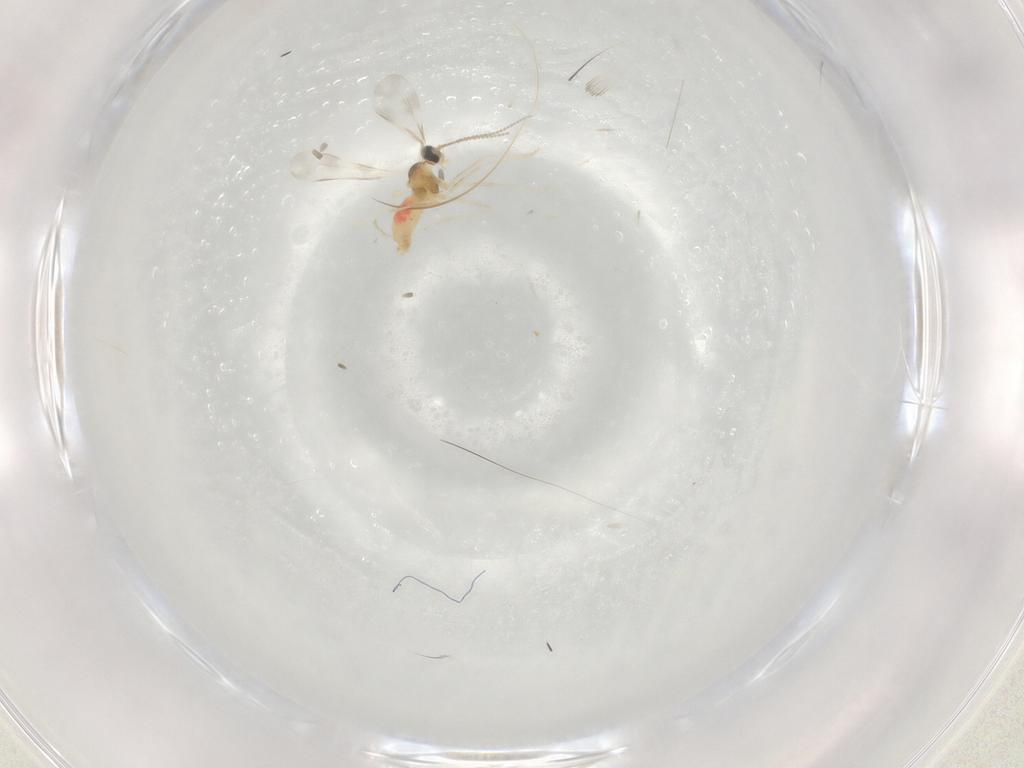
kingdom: Animalia
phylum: Arthropoda
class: Insecta
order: Diptera
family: Cecidomyiidae
